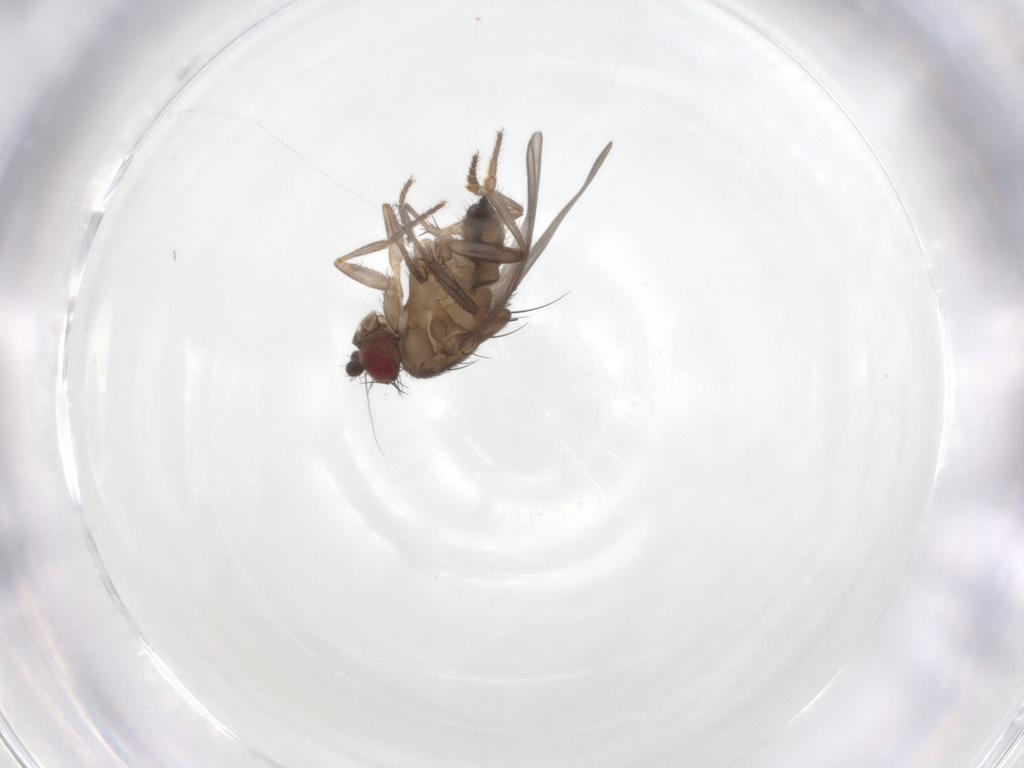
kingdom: Animalia
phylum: Arthropoda
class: Insecta
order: Diptera
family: Sphaeroceridae
